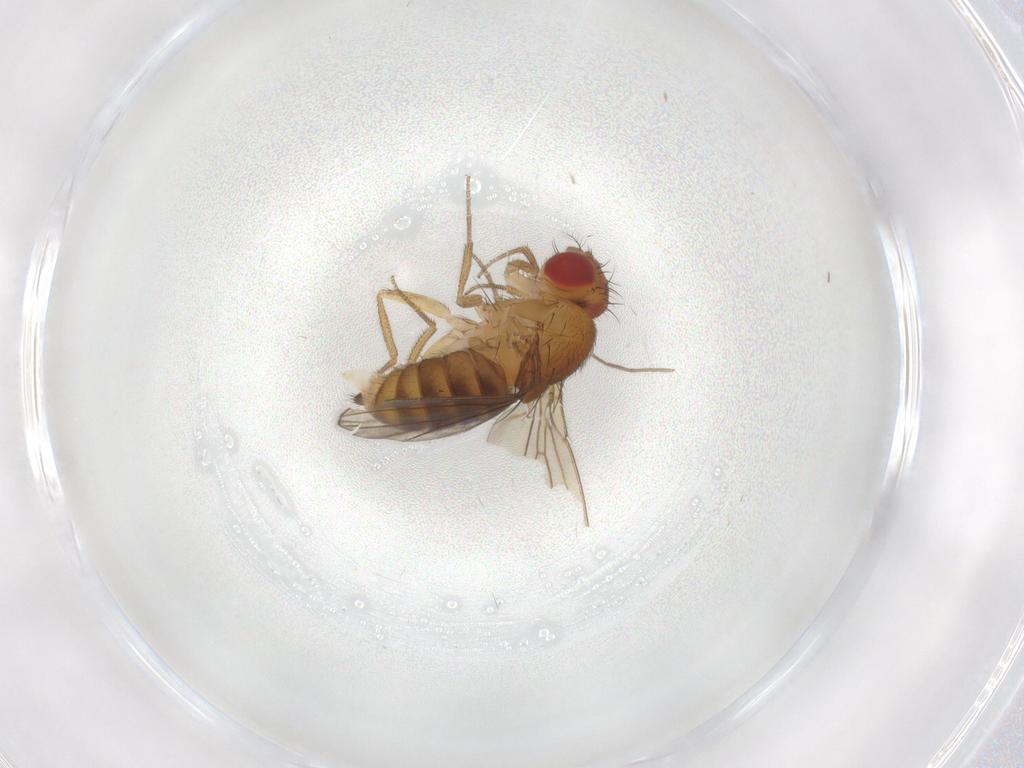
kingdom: Animalia
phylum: Arthropoda
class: Insecta
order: Diptera
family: Drosophilidae
